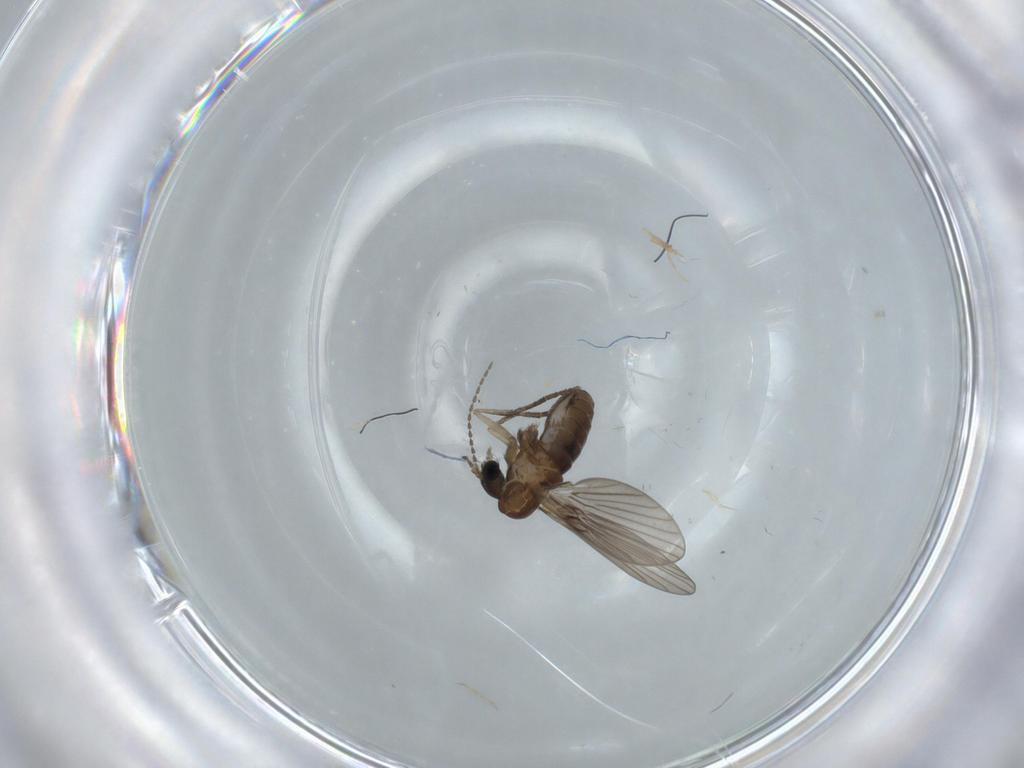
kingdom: Animalia
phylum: Arthropoda
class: Insecta
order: Diptera
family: Psychodidae
